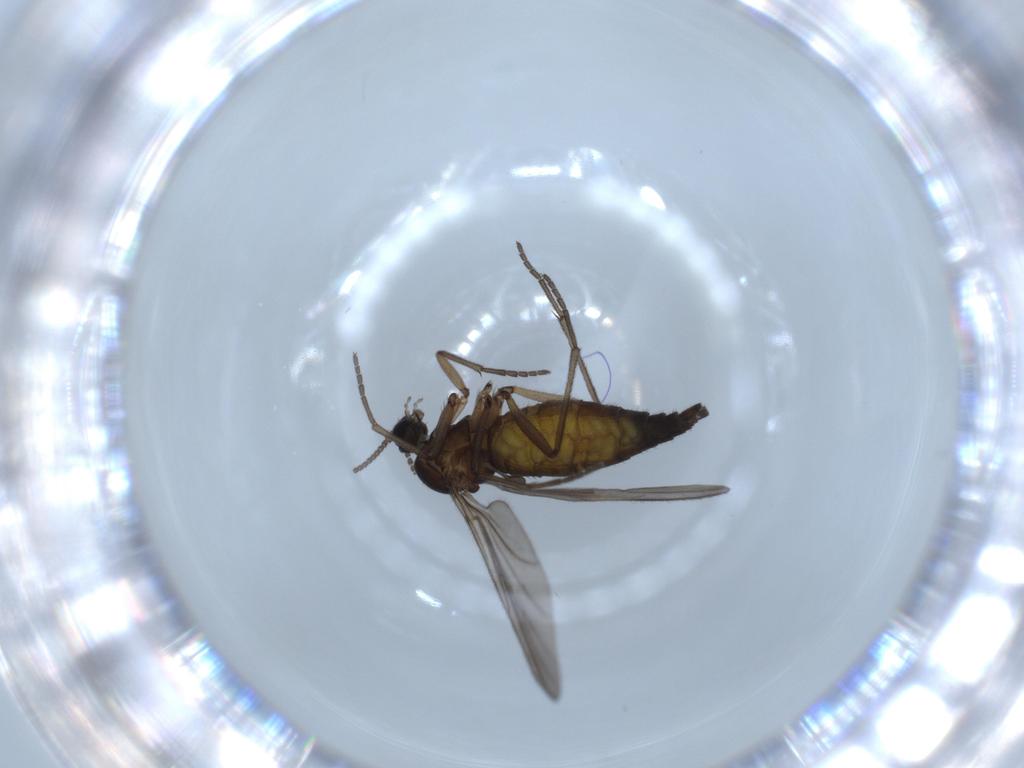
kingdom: Animalia
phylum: Arthropoda
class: Insecta
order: Diptera
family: Sciaridae
